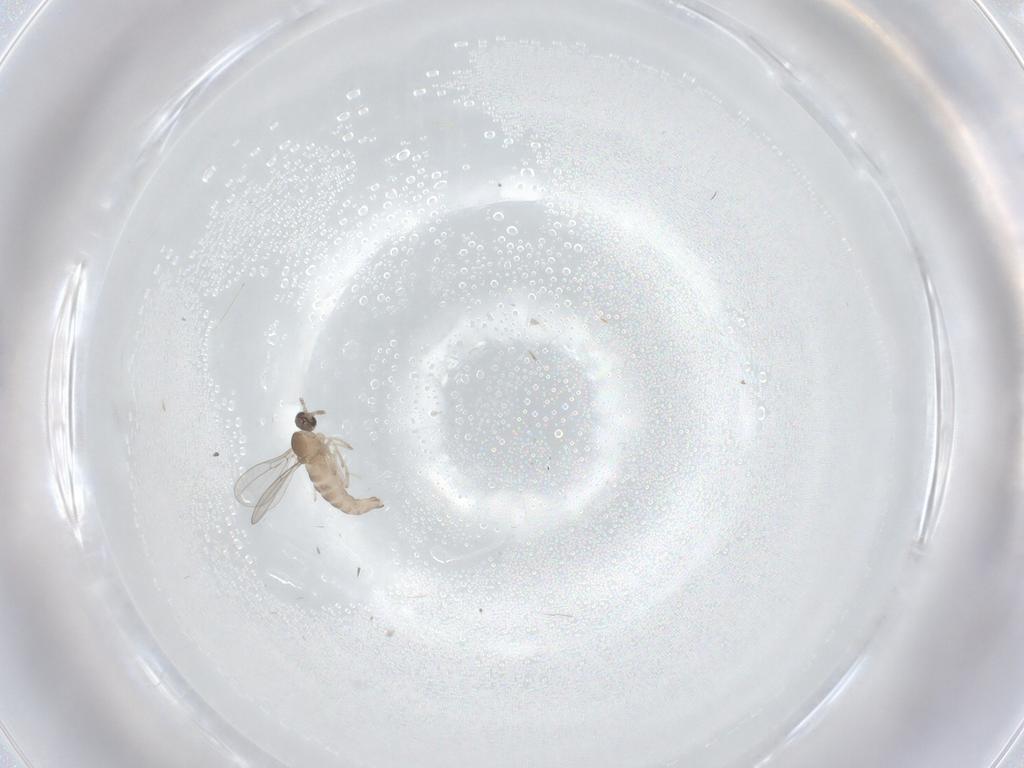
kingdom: Animalia
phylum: Arthropoda
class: Insecta
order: Diptera
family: Cecidomyiidae
